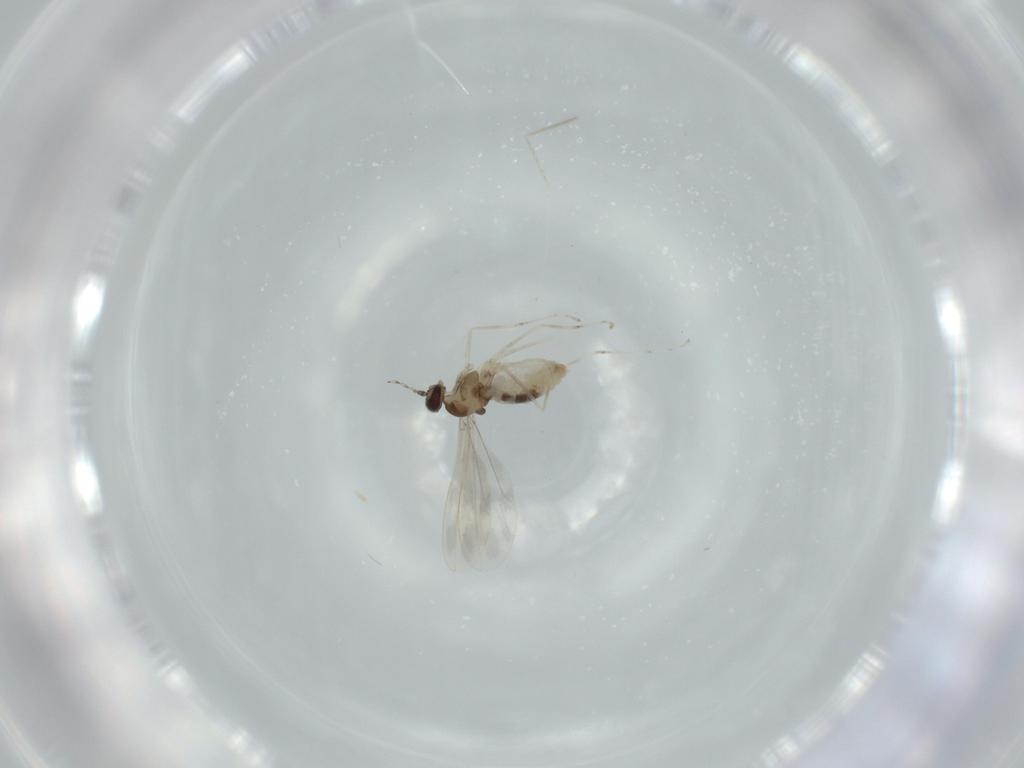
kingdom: Animalia
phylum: Arthropoda
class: Insecta
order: Diptera
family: Cecidomyiidae
